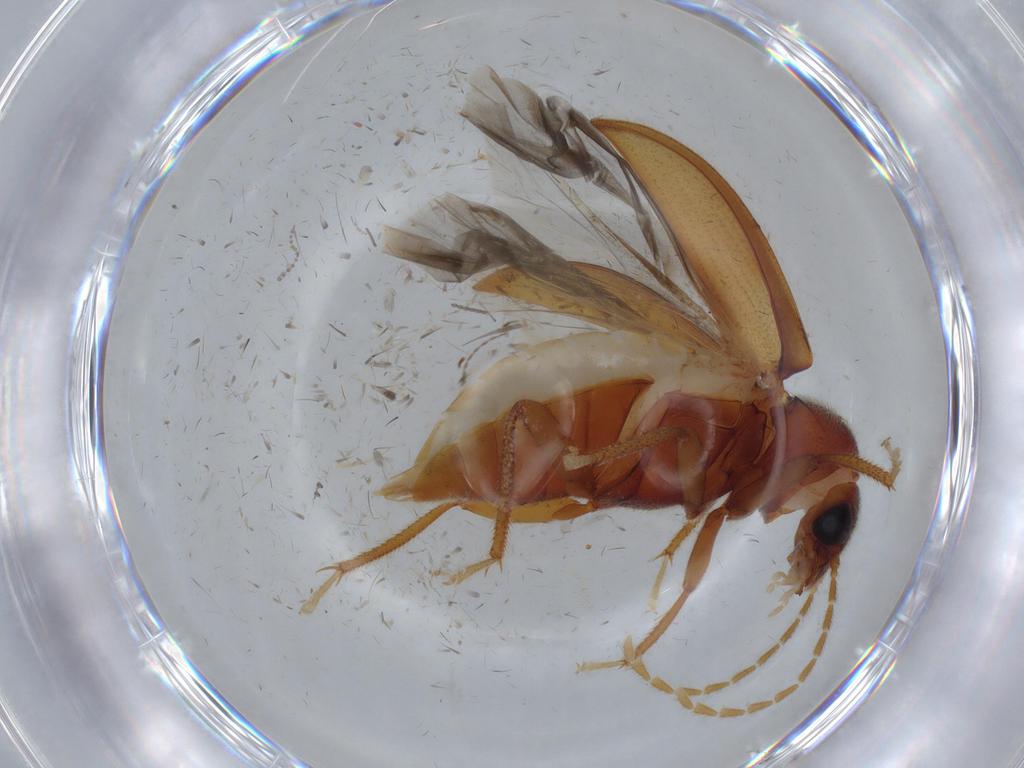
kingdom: Animalia
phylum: Arthropoda
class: Insecta
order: Coleoptera
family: Ptilodactylidae
